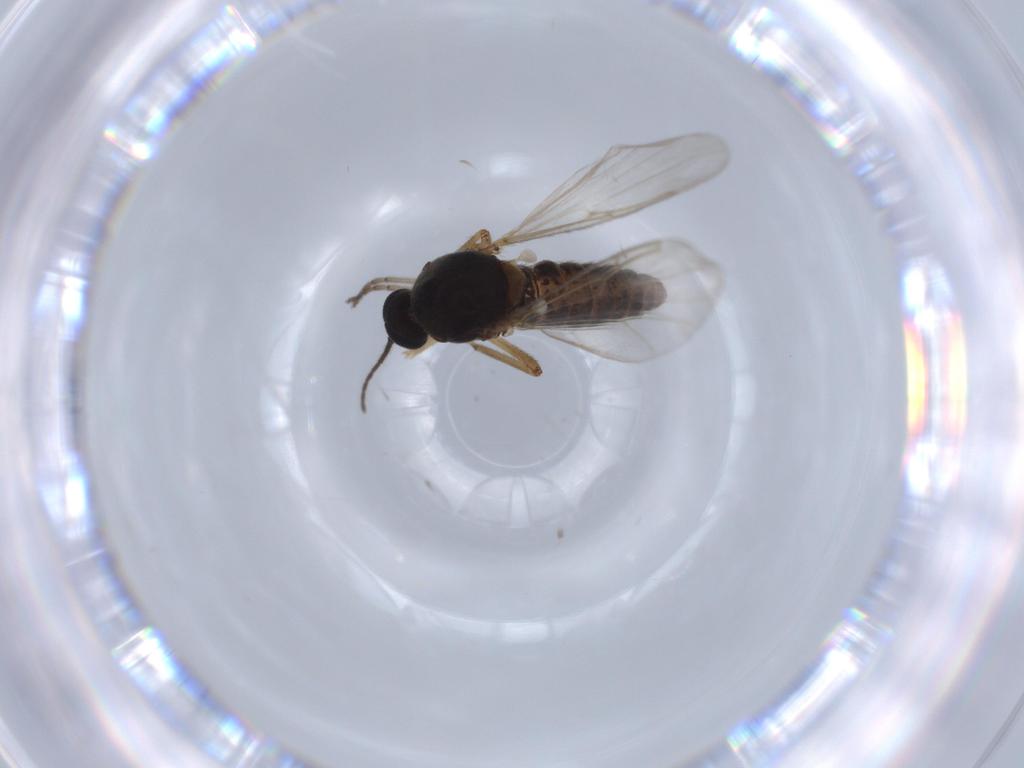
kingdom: Animalia
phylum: Arthropoda
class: Insecta
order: Diptera
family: Ceratopogonidae
